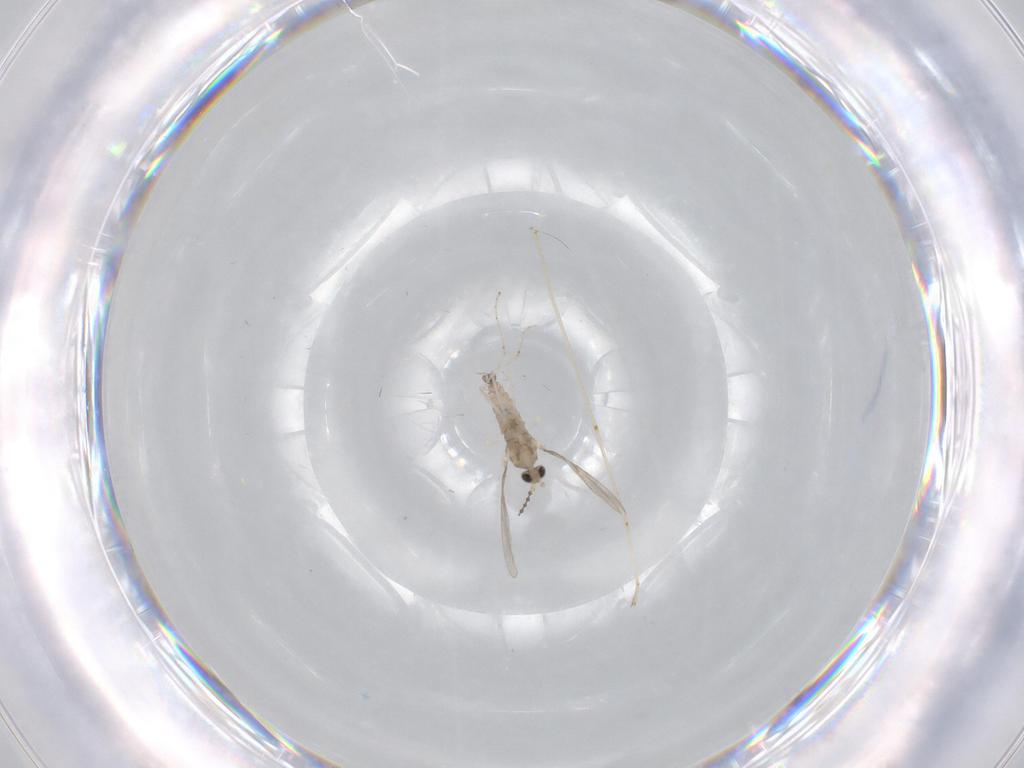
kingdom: Animalia
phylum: Arthropoda
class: Insecta
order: Diptera
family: Cecidomyiidae
